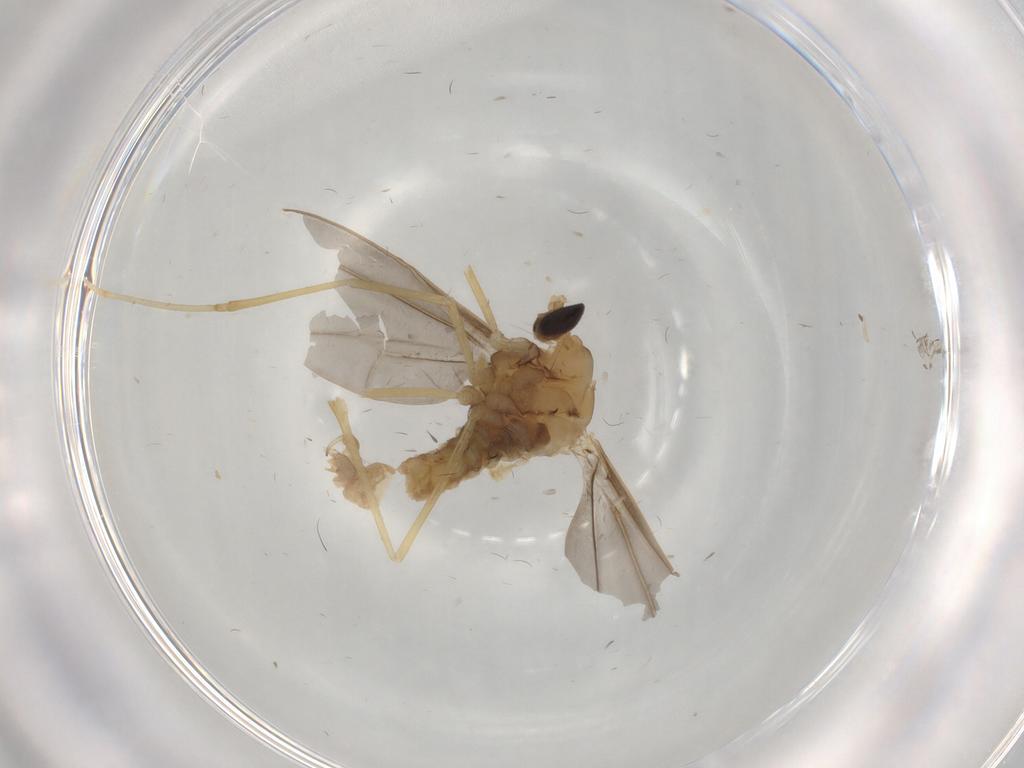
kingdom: Animalia
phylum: Arthropoda
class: Insecta
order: Diptera
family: Cecidomyiidae
